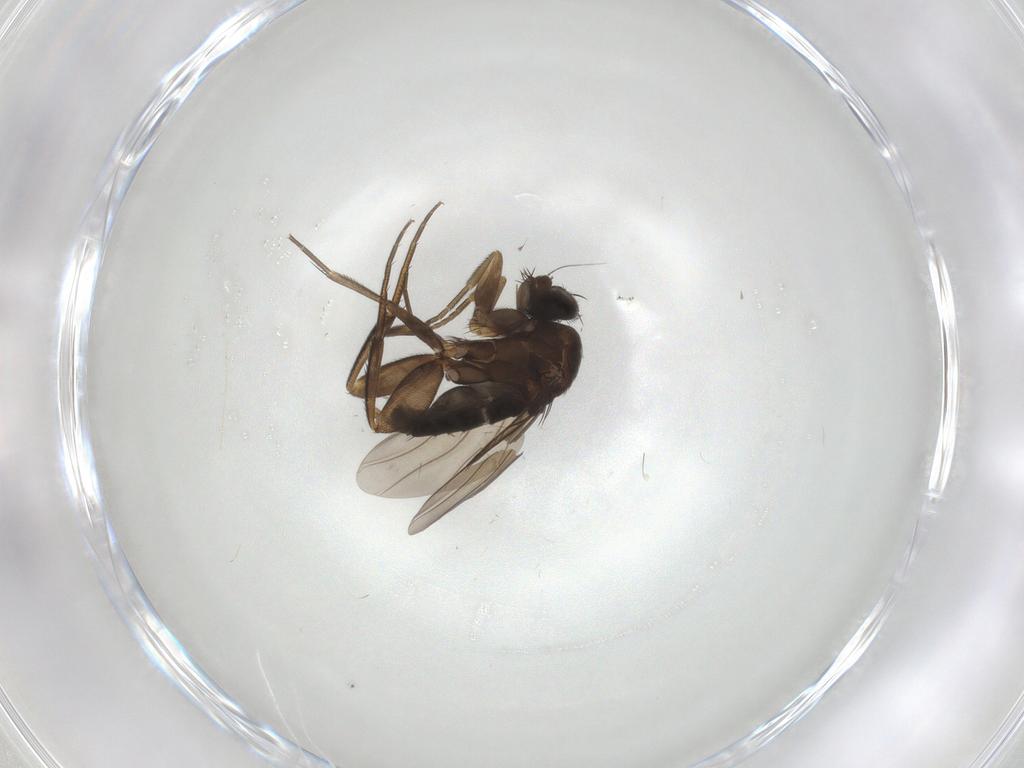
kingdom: Animalia
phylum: Arthropoda
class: Insecta
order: Diptera
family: Phoridae
